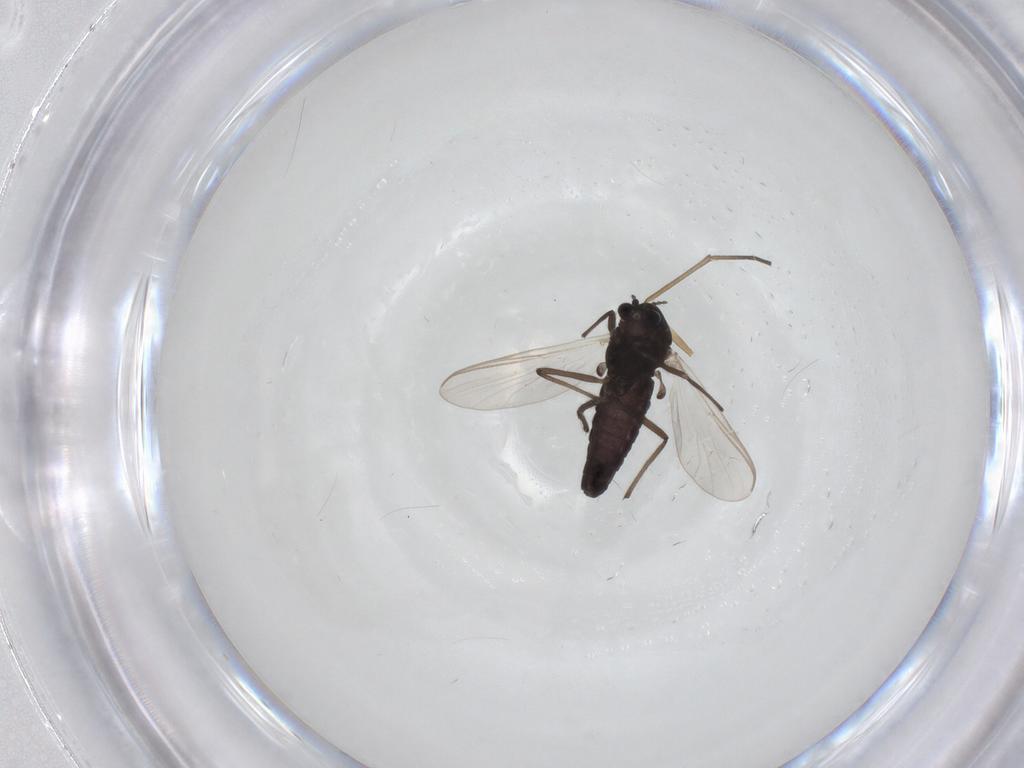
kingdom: Animalia
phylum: Arthropoda
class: Insecta
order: Diptera
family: Chironomidae
